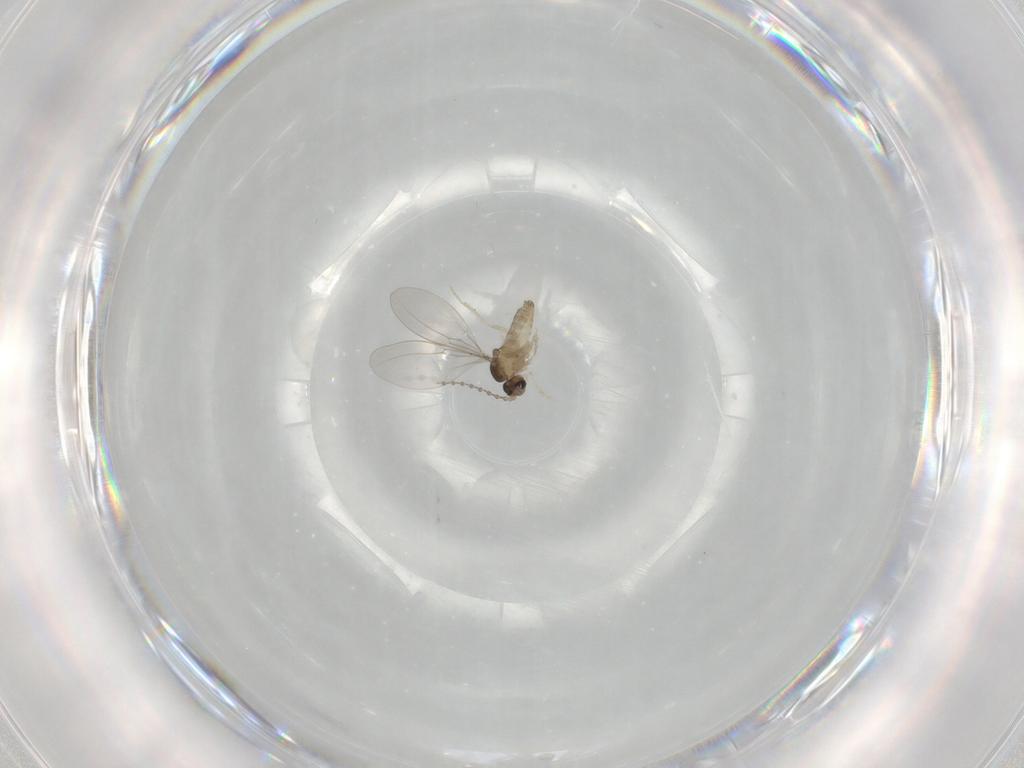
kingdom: Animalia
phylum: Arthropoda
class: Insecta
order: Diptera
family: Cecidomyiidae
